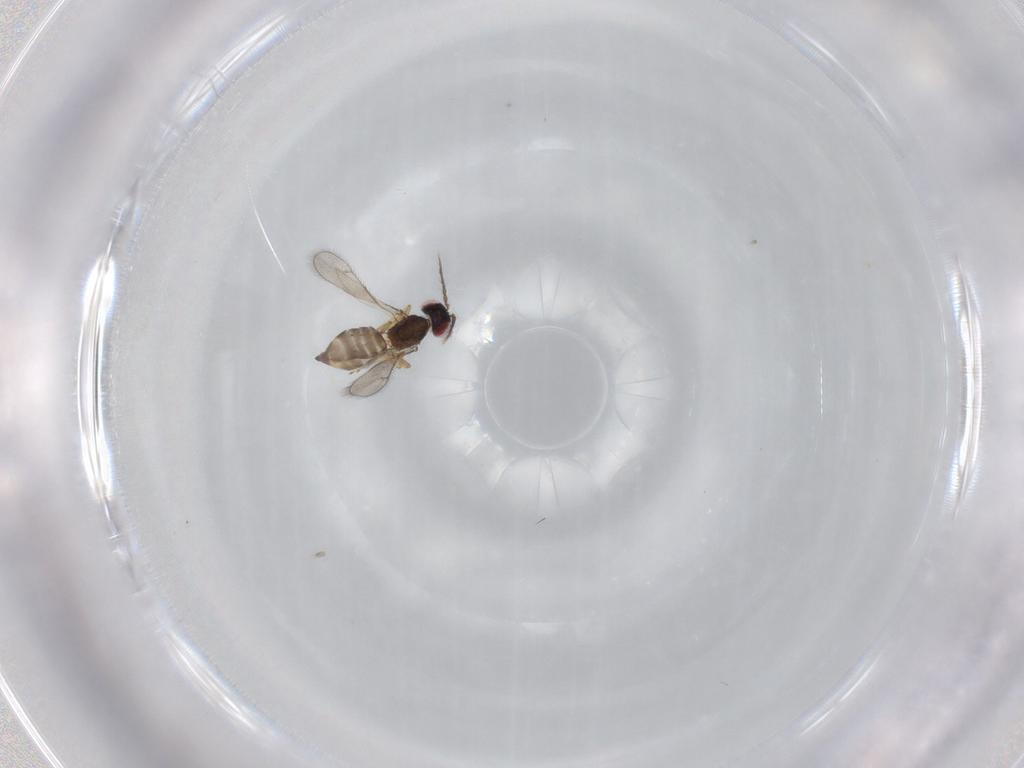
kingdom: Animalia
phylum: Arthropoda
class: Insecta
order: Hymenoptera
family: Eulophidae
